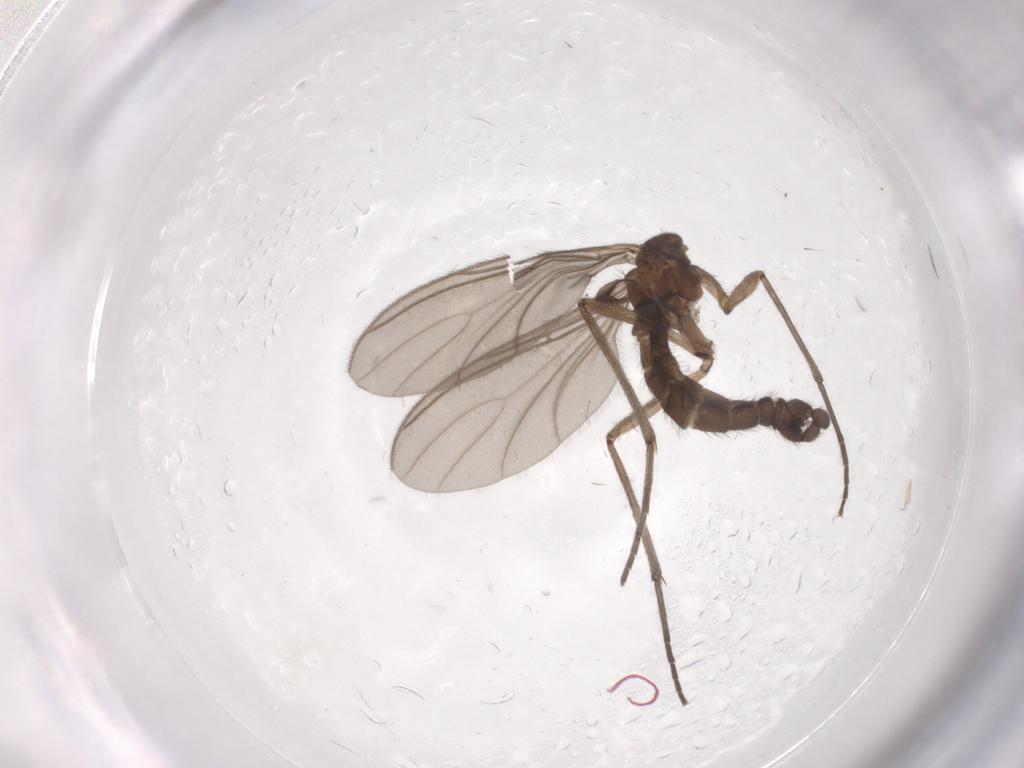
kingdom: Animalia
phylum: Arthropoda
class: Insecta
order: Diptera
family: Sciaridae
